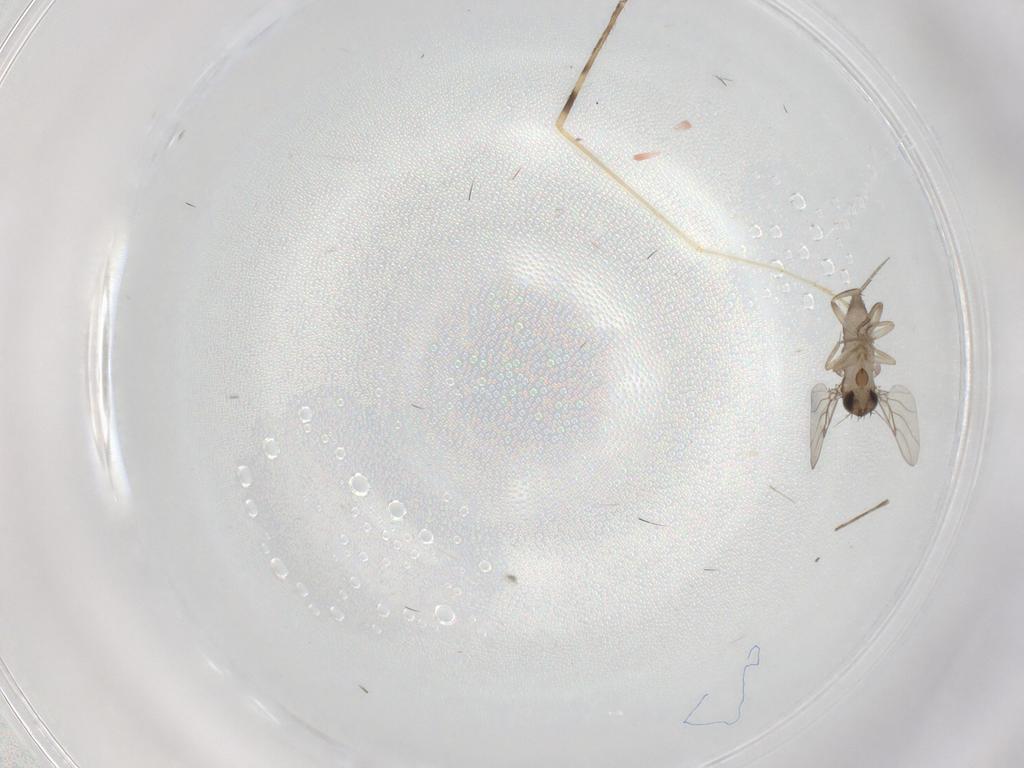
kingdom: Animalia
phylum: Arthropoda
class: Insecta
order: Diptera
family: Phoridae
